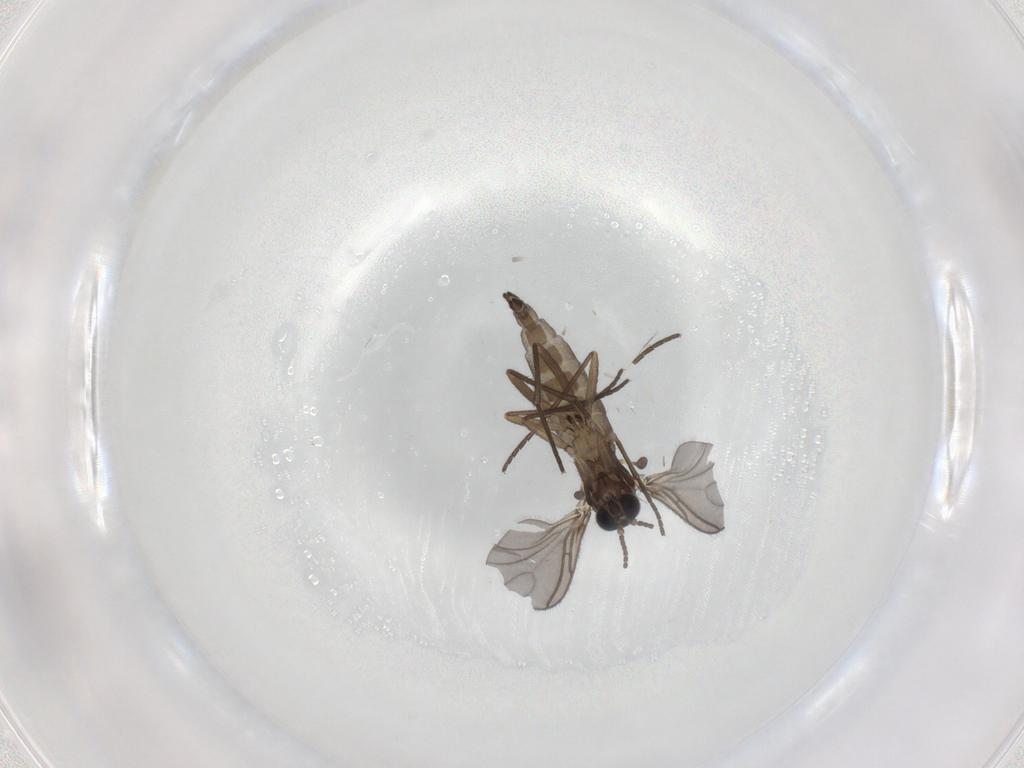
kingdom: Animalia
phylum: Arthropoda
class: Insecta
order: Diptera
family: Sciaridae
